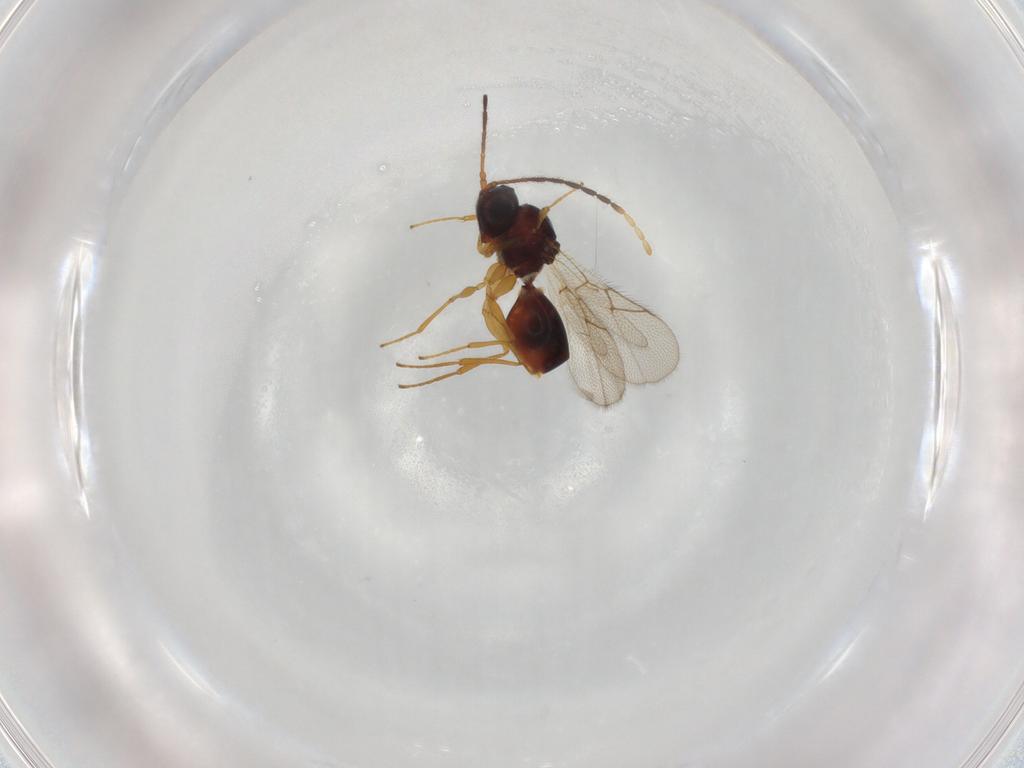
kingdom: Animalia
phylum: Arthropoda
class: Insecta
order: Hymenoptera
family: Figitidae
